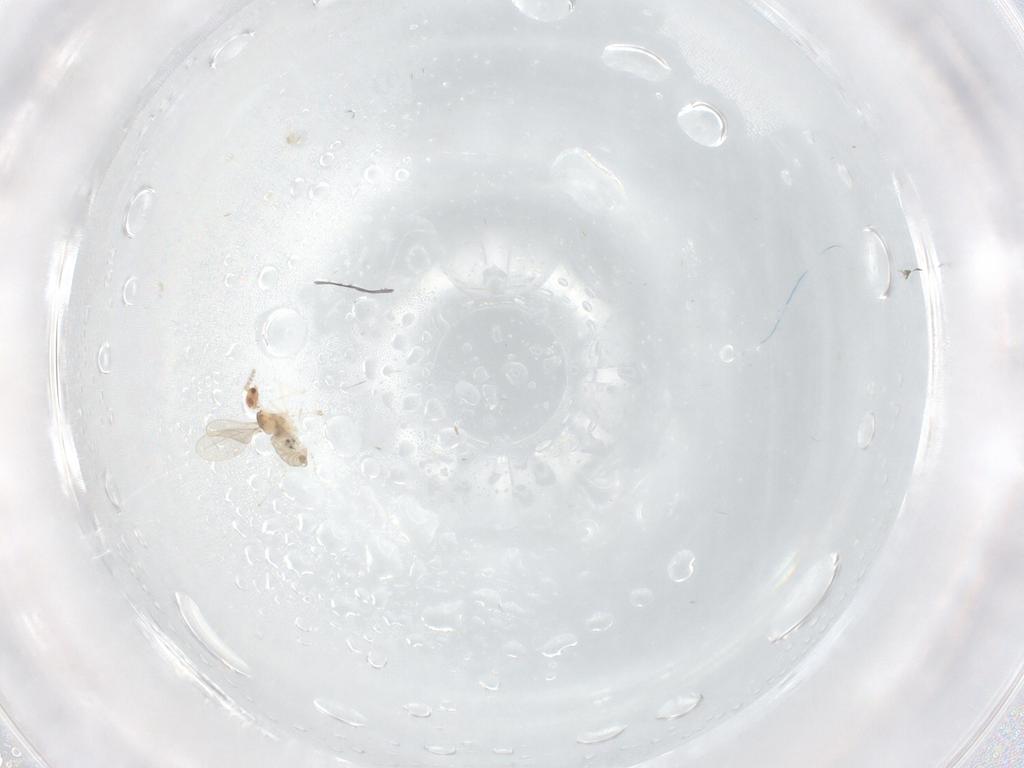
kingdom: Animalia
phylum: Arthropoda
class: Insecta
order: Diptera
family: Cecidomyiidae
